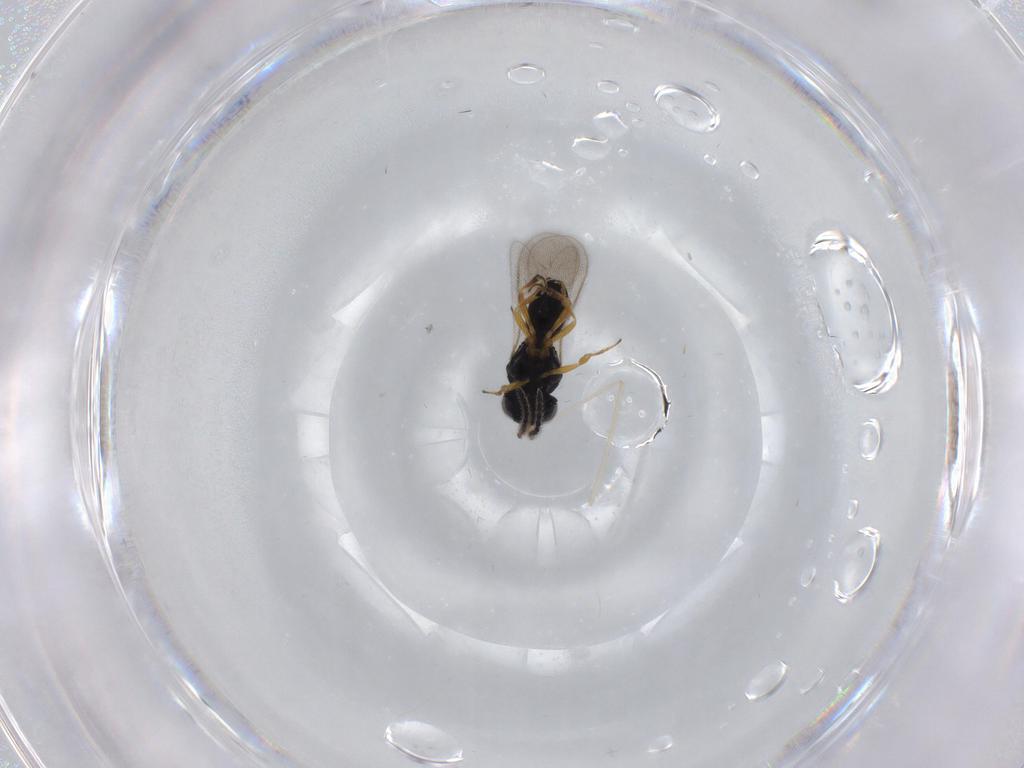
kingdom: Animalia
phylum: Arthropoda
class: Insecta
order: Hymenoptera
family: Scelionidae
